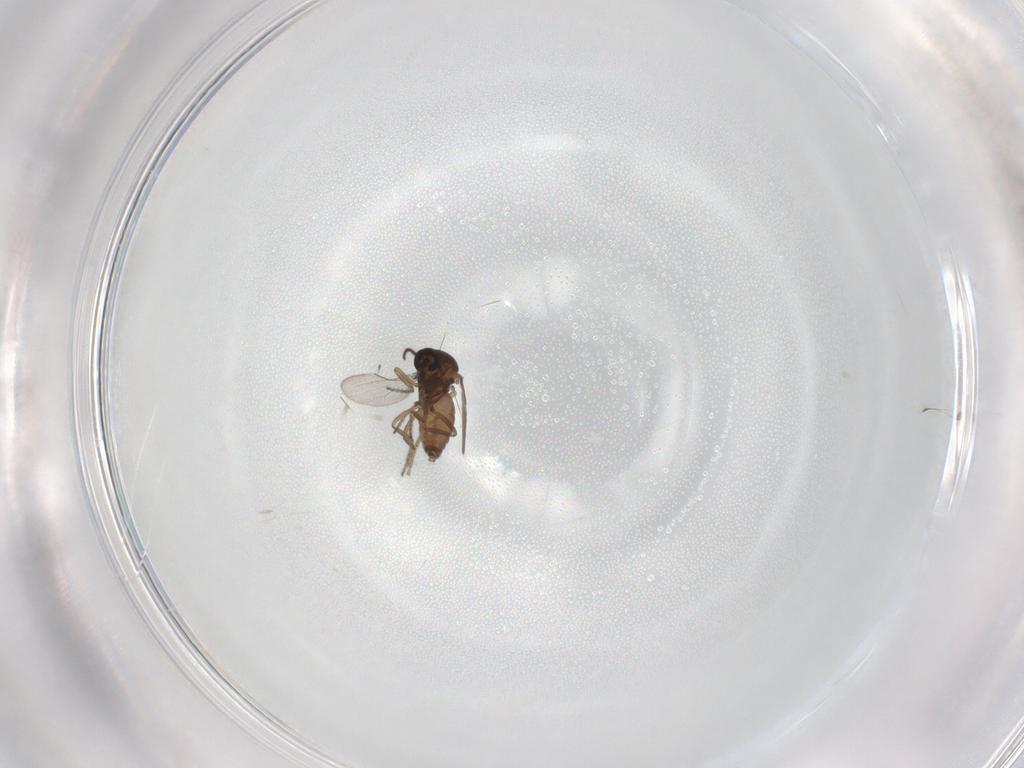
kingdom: Animalia
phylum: Arthropoda
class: Insecta
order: Diptera
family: Ceratopogonidae
